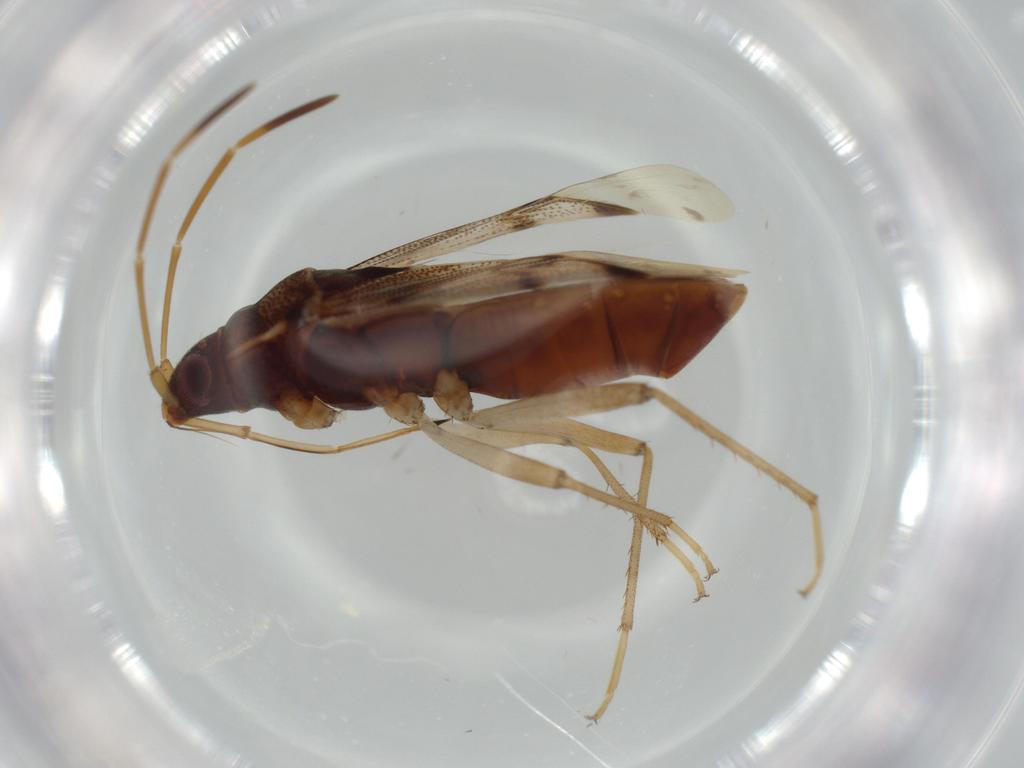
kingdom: Animalia
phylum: Arthropoda
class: Insecta
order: Hemiptera
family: Rhyparochromidae
